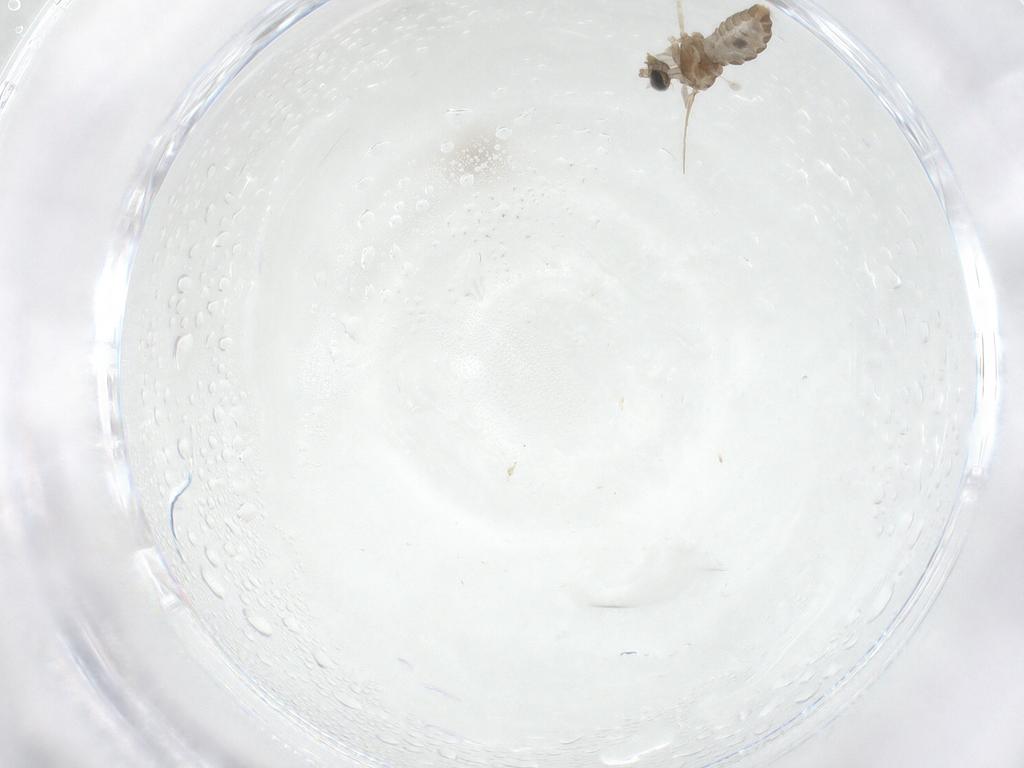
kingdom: Animalia
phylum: Arthropoda
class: Insecta
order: Diptera
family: Cecidomyiidae
